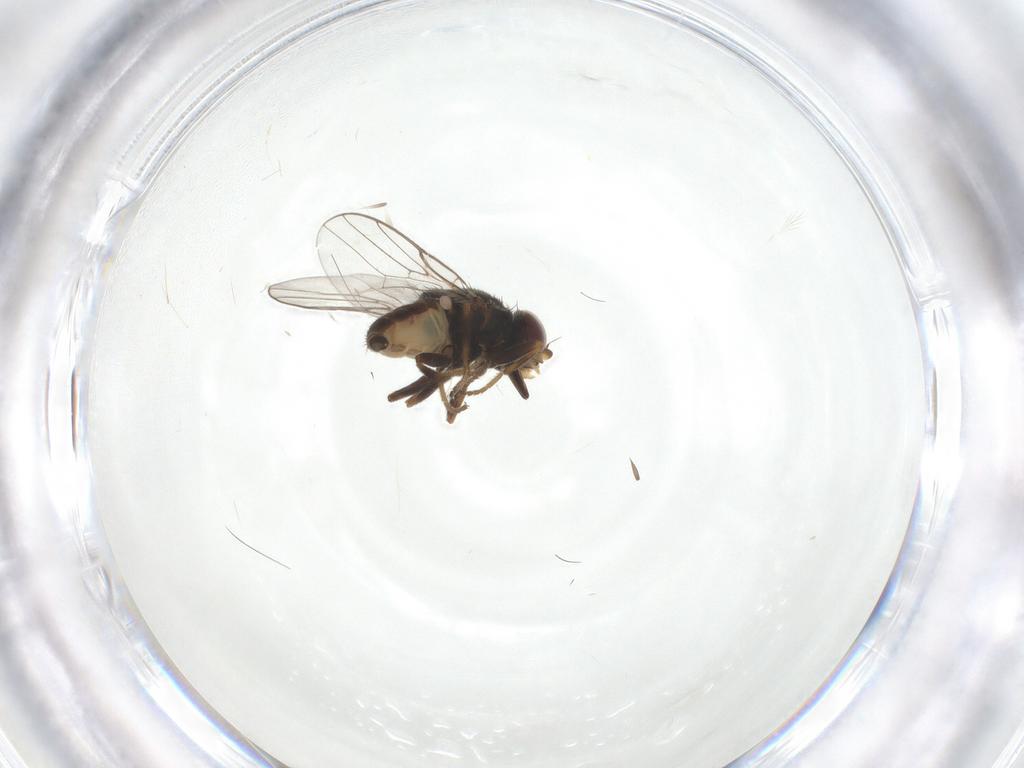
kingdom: Animalia
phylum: Arthropoda
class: Insecta
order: Diptera
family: Chloropidae
